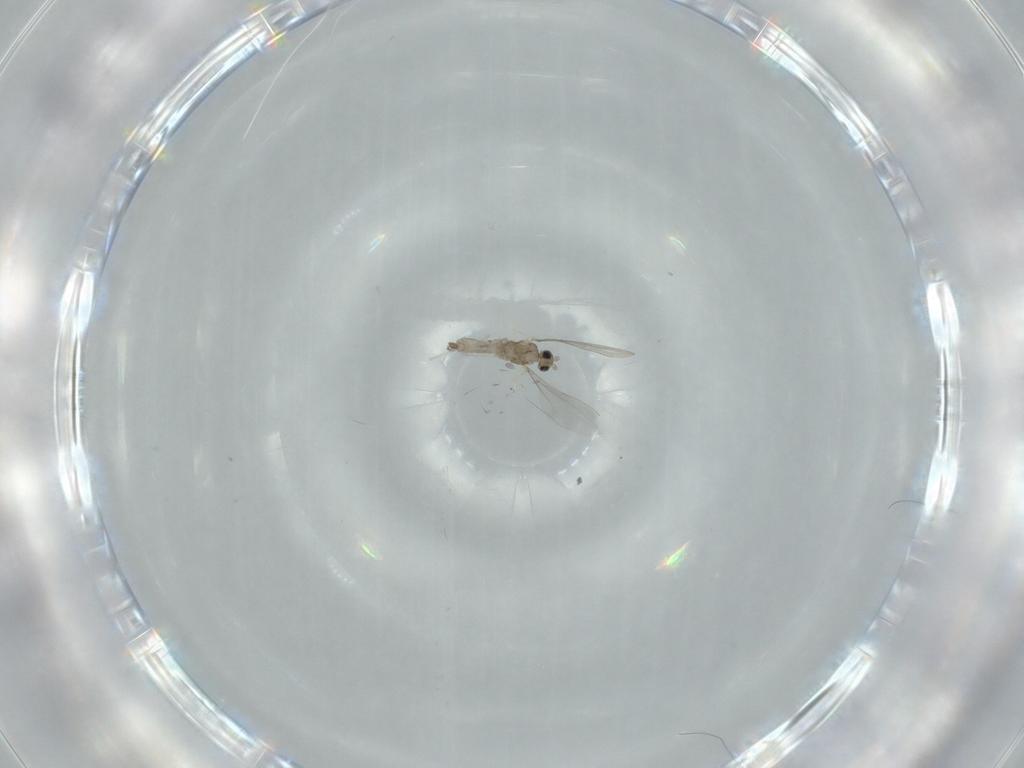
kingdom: Animalia
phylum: Arthropoda
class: Insecta
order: Diptera
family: Cecidomyiidae
